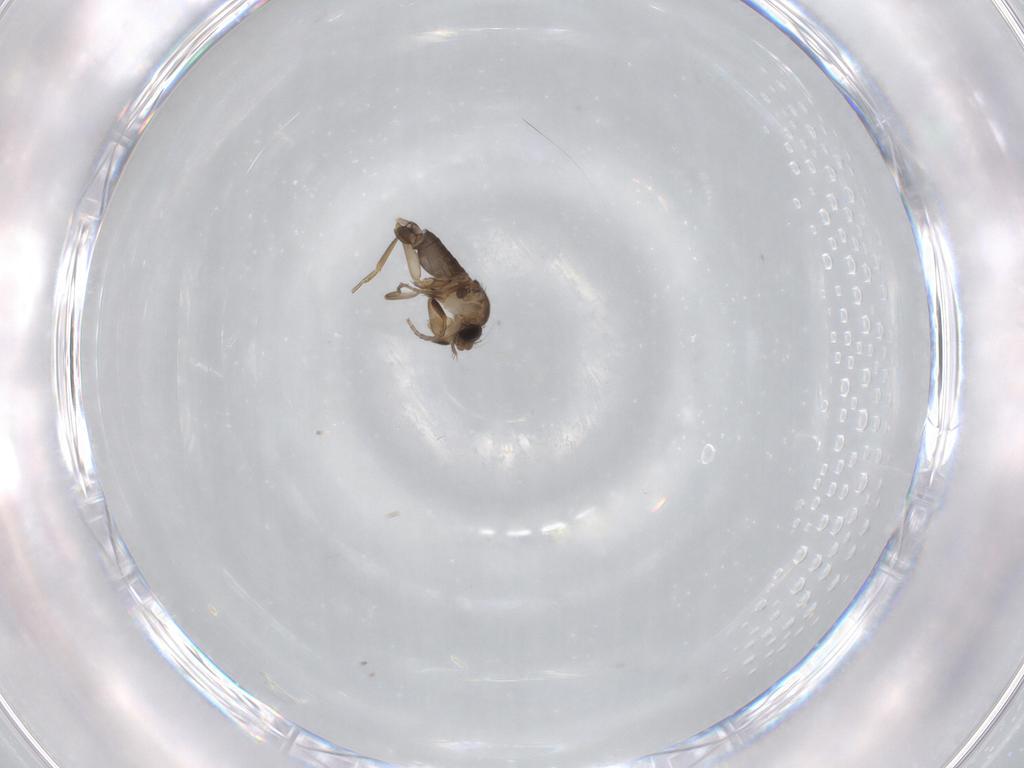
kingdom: Animalia
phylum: Arthropoda
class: Insecta
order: Diptera
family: Phoridae
